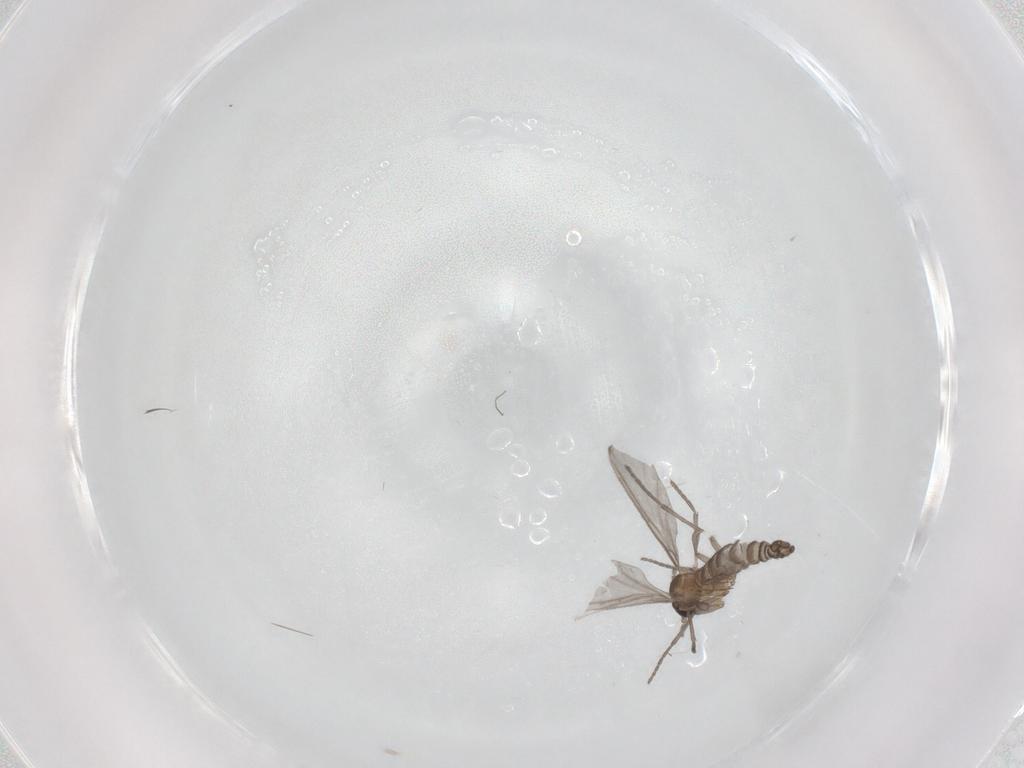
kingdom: Animalia
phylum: Arthropoda
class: Insecta
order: Diptera
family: Sciaridae
